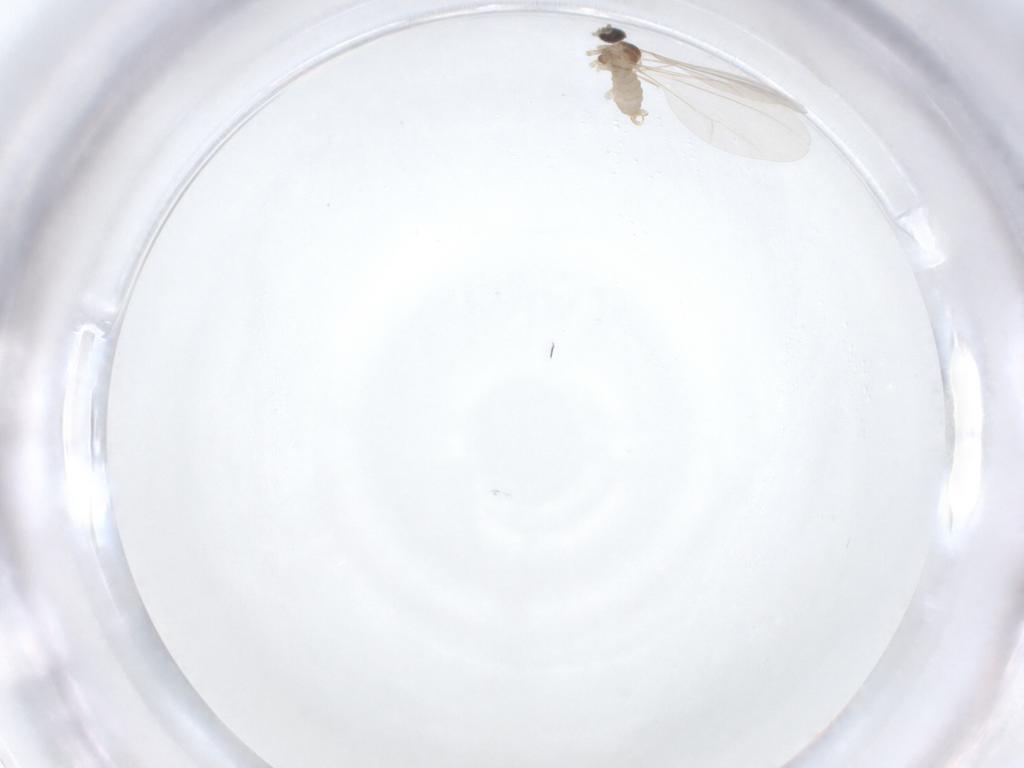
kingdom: Animalia
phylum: Arthropoda
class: Insecta
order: Diptera
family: Cecidomyiidae
